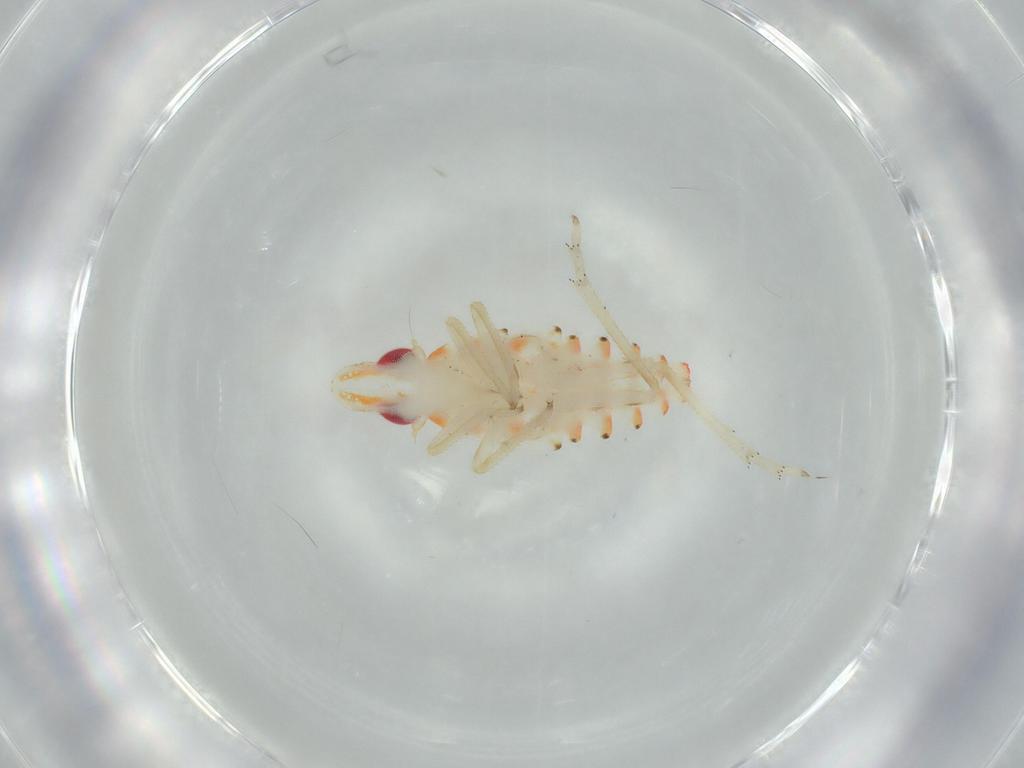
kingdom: Animalia
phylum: Arthropoda
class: Insecta
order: Hemiptera
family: Tropiduchidae
